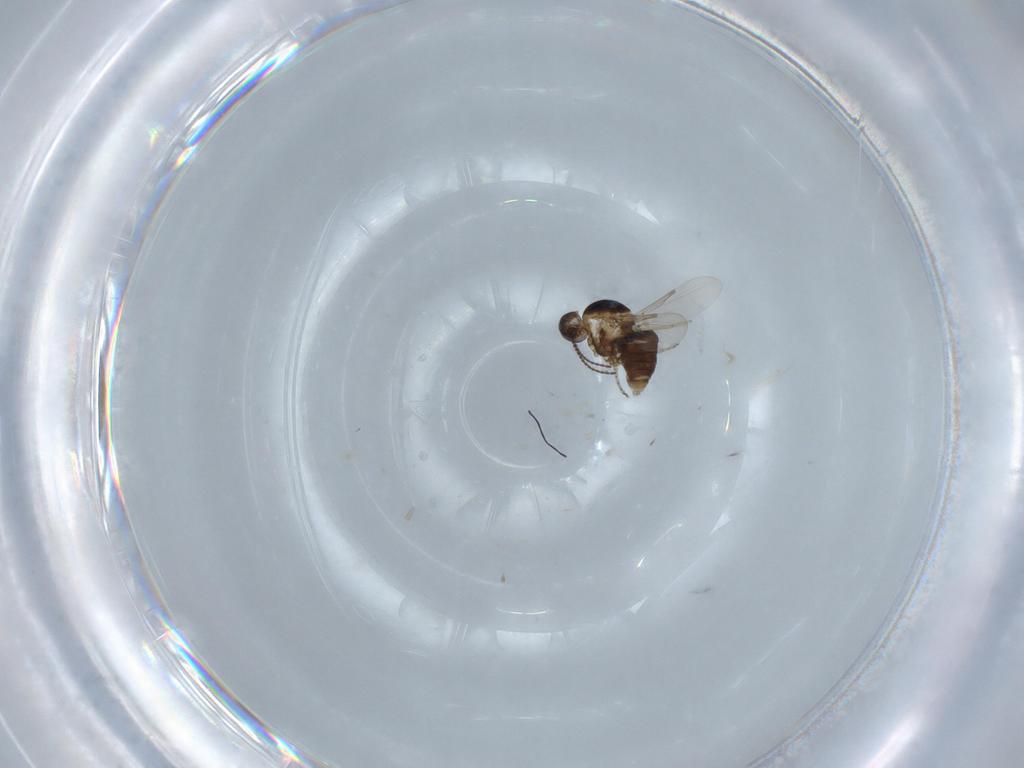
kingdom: Animalia
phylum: Arthropoda
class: Insecta
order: Diptera
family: Ceratopogonidae
